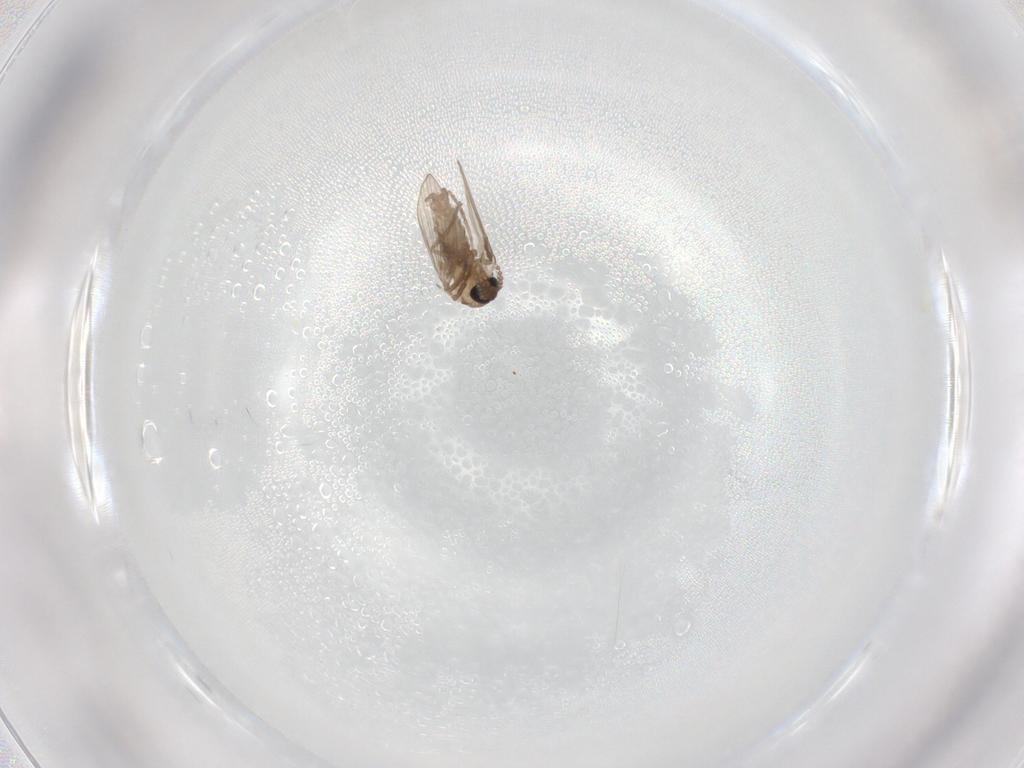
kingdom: Animalia
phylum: Arthropoda
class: Insecta
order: Diptera
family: Psychodidae
